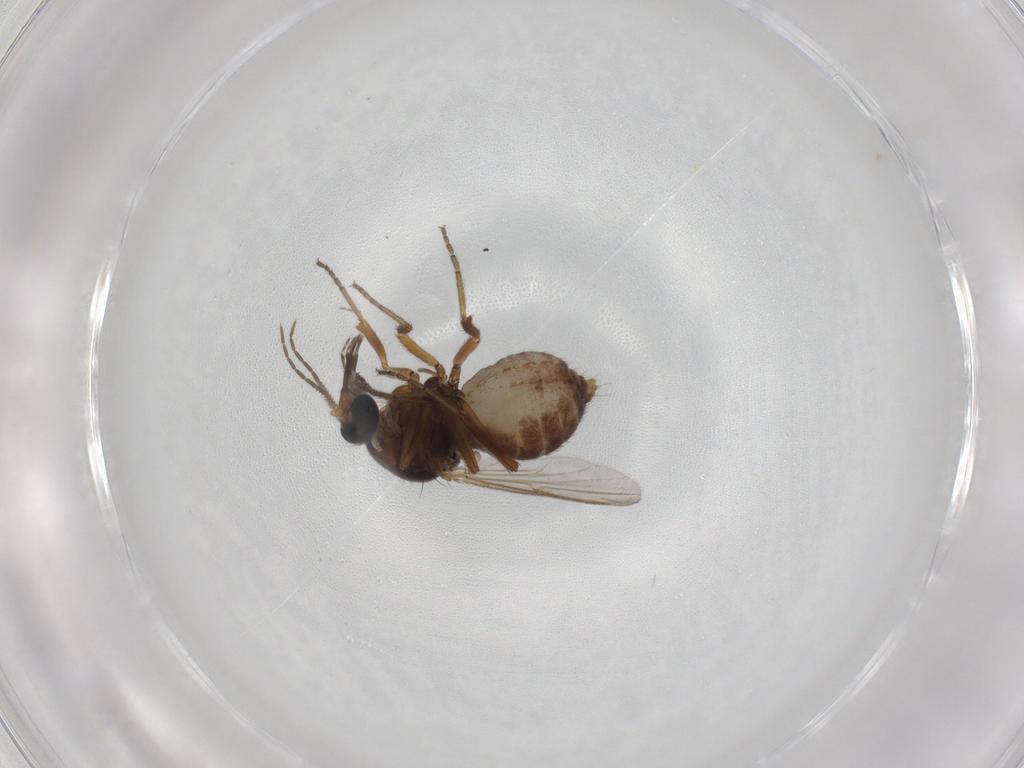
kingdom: Animalia
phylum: Arthropoda
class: Insecta
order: Diptera
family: Ceratopogonidae
